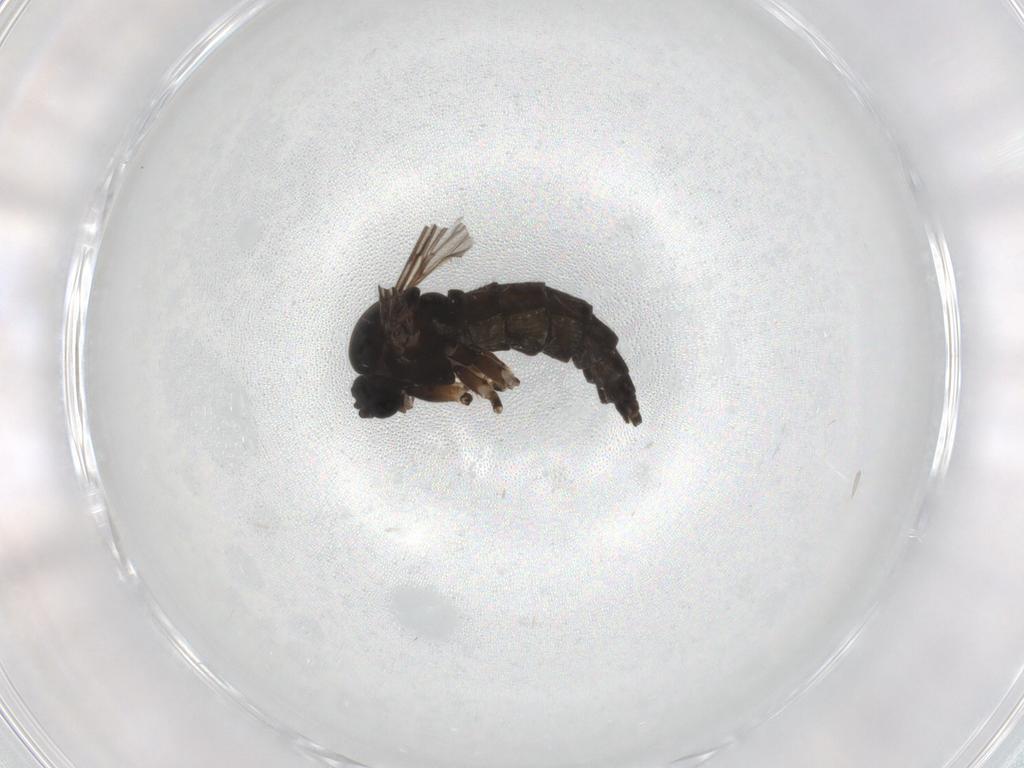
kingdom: Animalia
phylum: Arthropoda
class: Insecta
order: Diptera
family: Sciaridae
